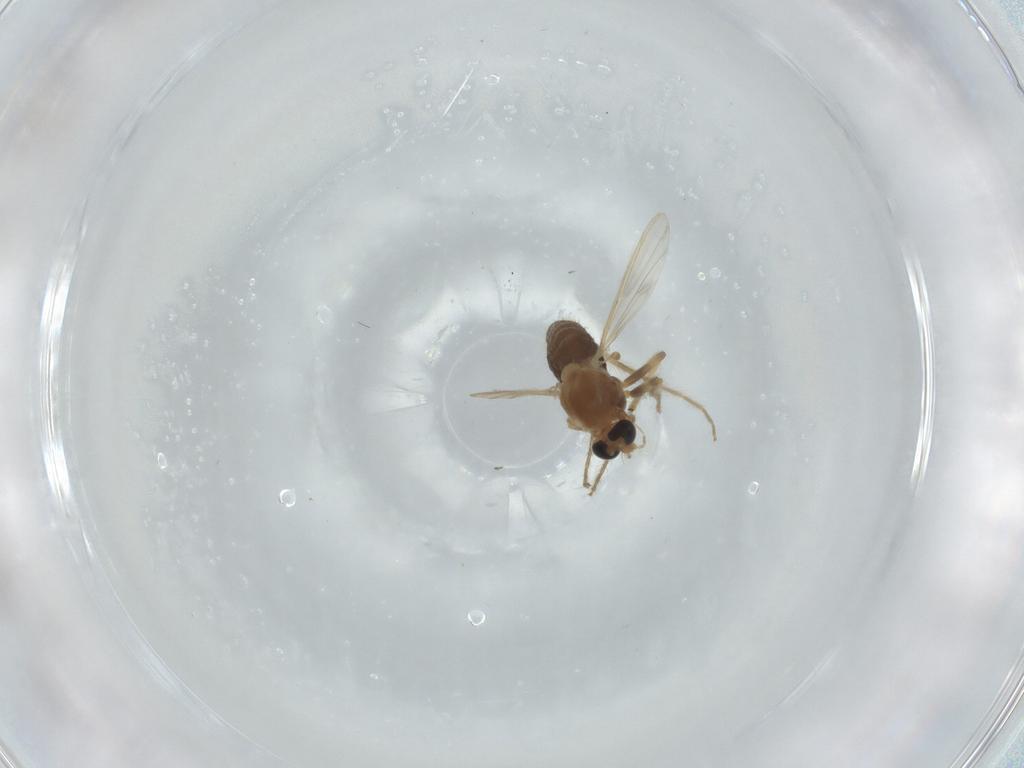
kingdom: Animalia
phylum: Arthropoda
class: Insecta
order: Diptera
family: Chironomidae
